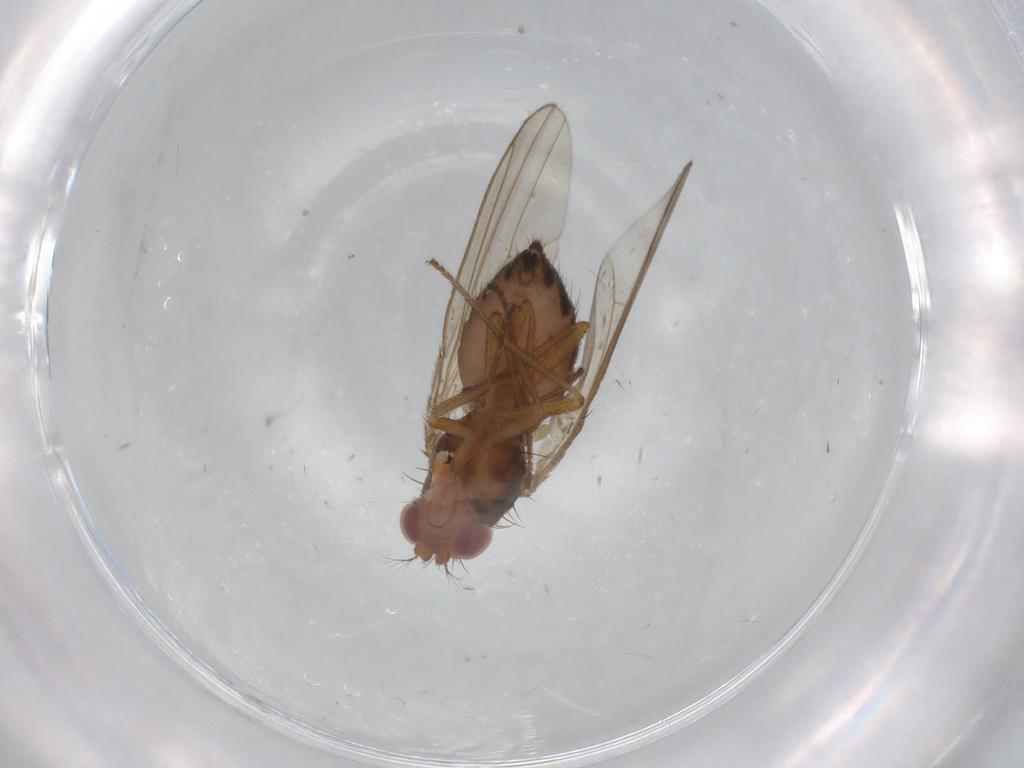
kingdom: Animalia
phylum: Arthropoda
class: Insecta
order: Diptera
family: Drosophilidae
